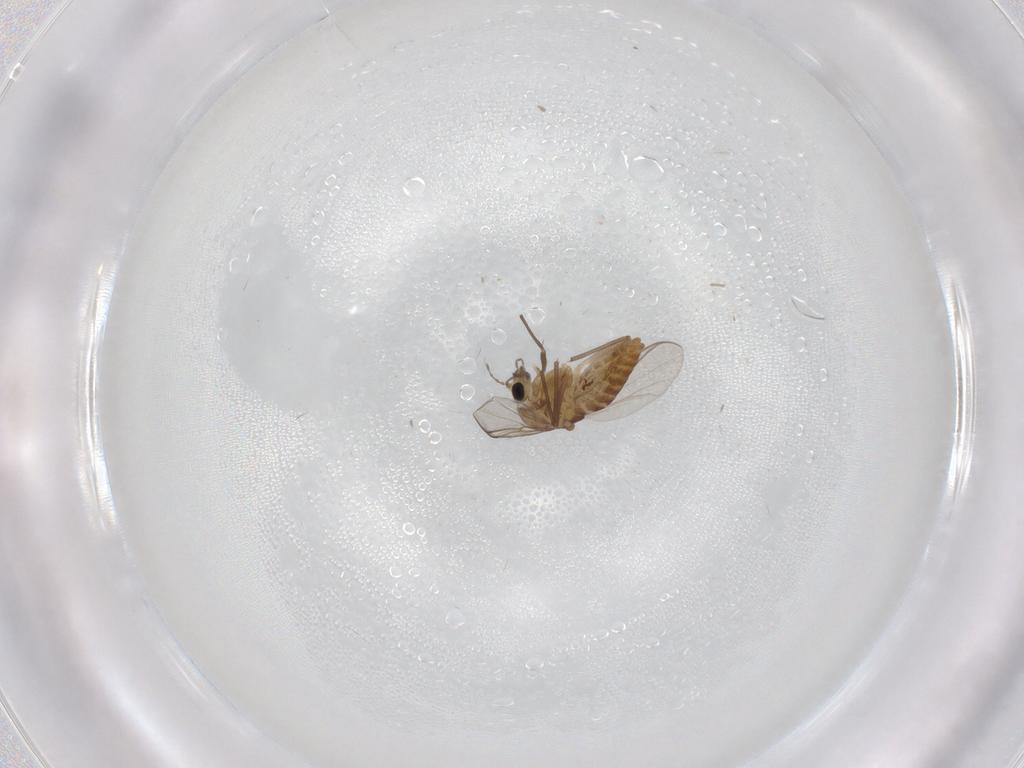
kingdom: Animalia
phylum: Arthropoda
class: Insecta
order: Diptera
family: Chironomidae
